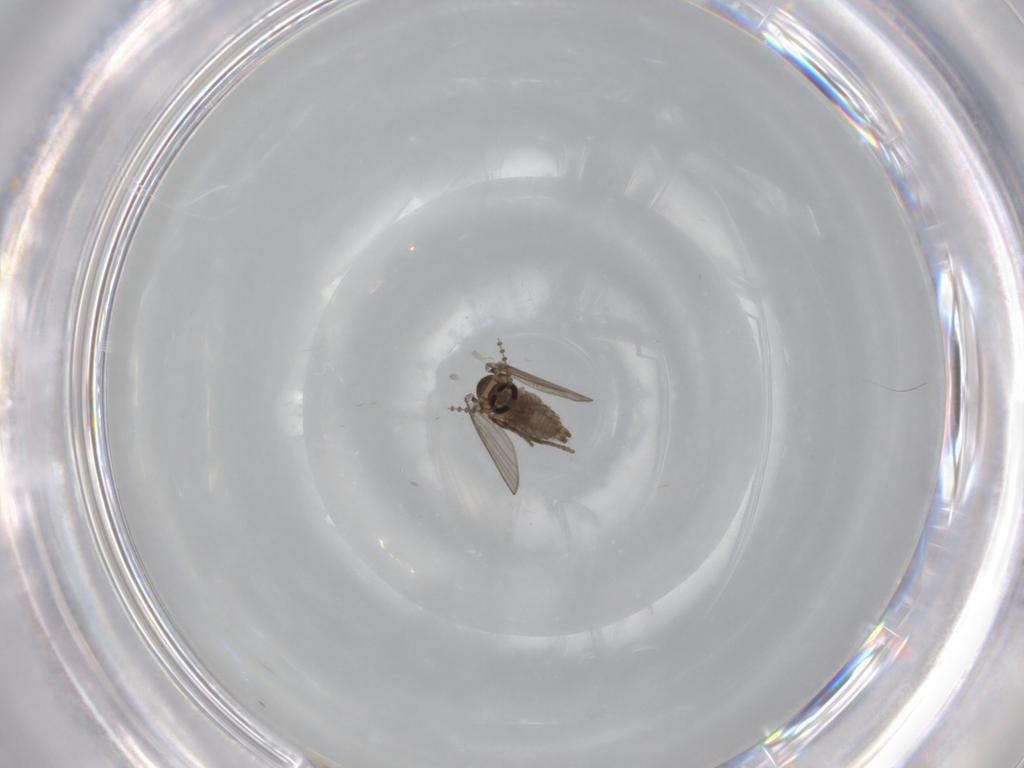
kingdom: Animalia
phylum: Arthropoda
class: Insecta
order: Diptera
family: Psychodidae
